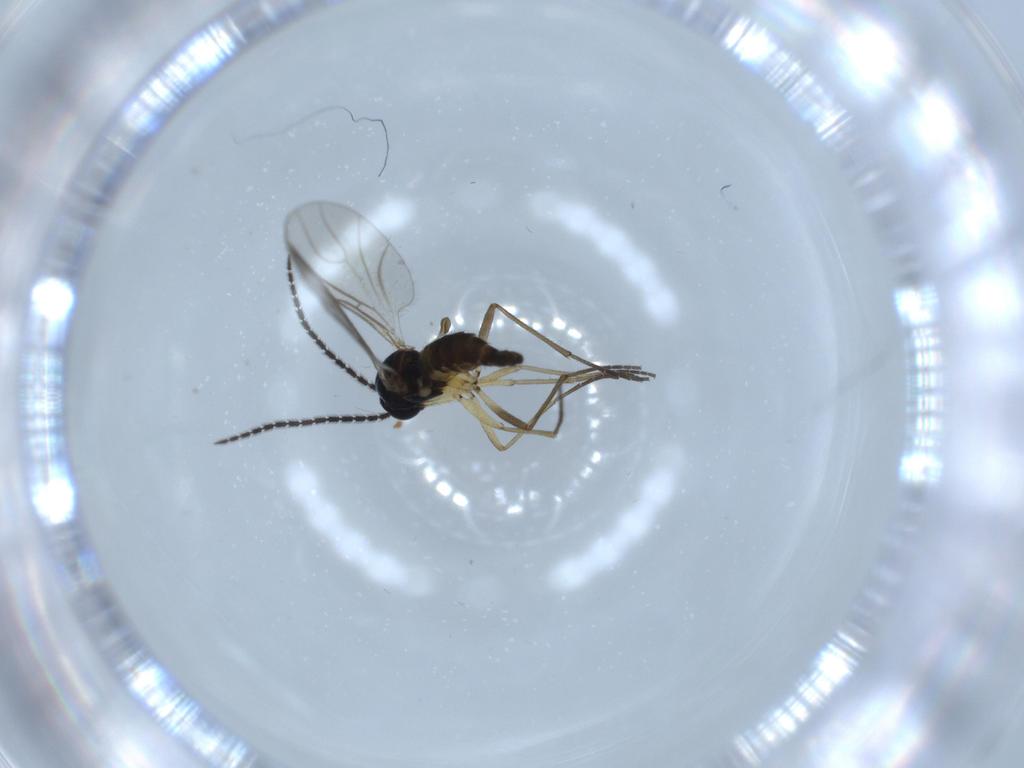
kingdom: Animalia
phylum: Arthropoda
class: Insecta
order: Diptera
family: Sciaridae
